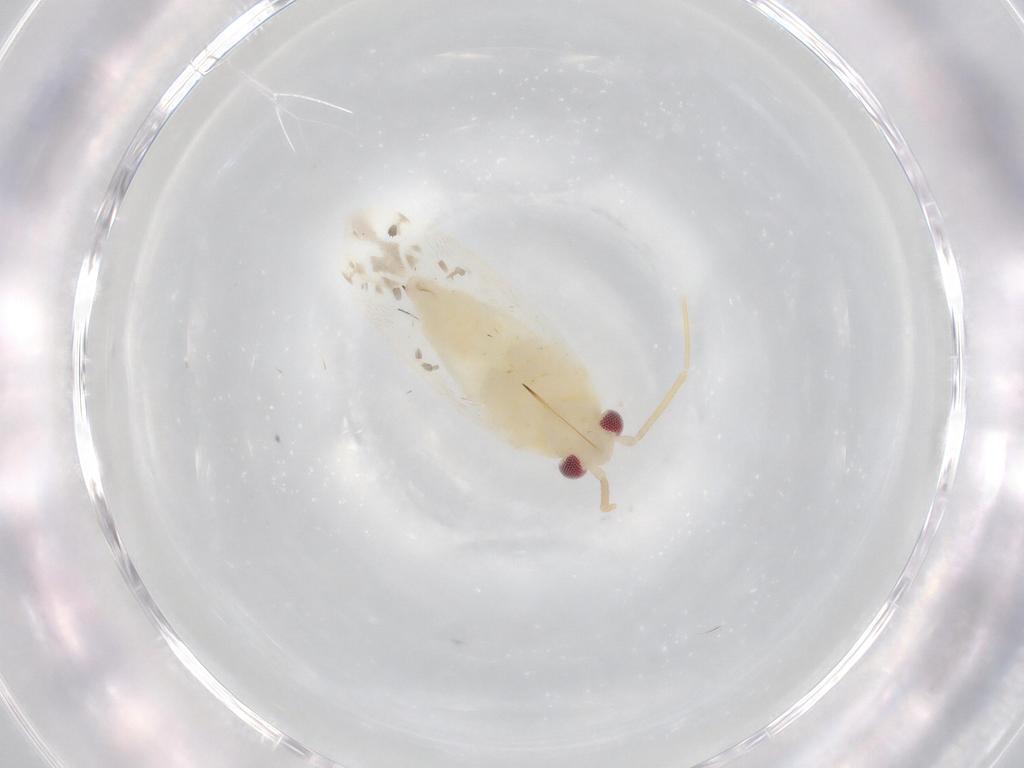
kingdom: Animalia
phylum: Arthropoda
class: Insecta
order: Hemiptera
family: Miridae
